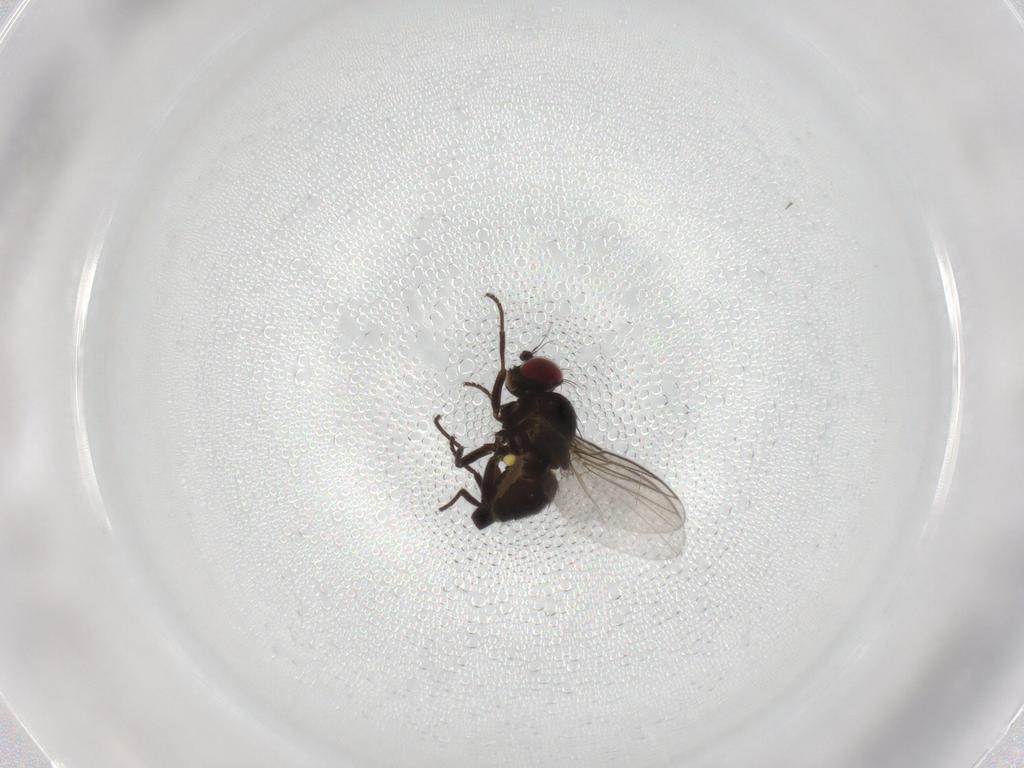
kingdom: Animalia
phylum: Arthropoda
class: Insecta
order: Diptera
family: Agromyzidae
